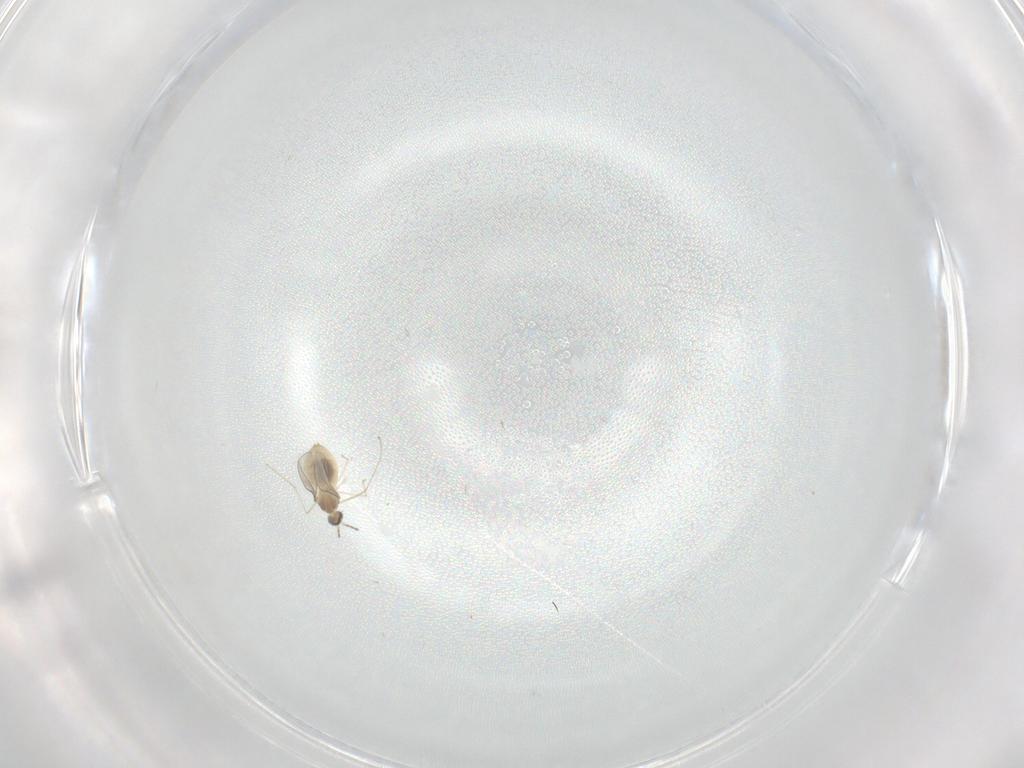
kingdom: Animalia
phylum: Arthropoda
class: Insecta
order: Diptera
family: Cecidomyiidae
